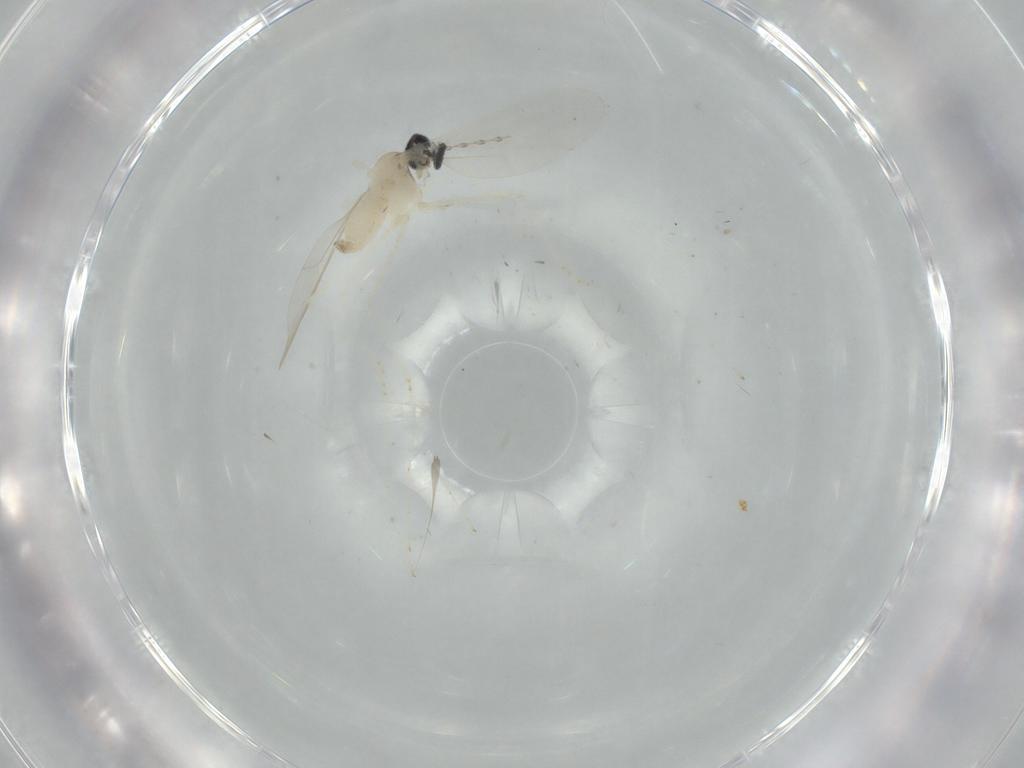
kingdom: Animalia
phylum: Arthropoda
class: Insecta
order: Diptera
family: Cecidomyiidae
